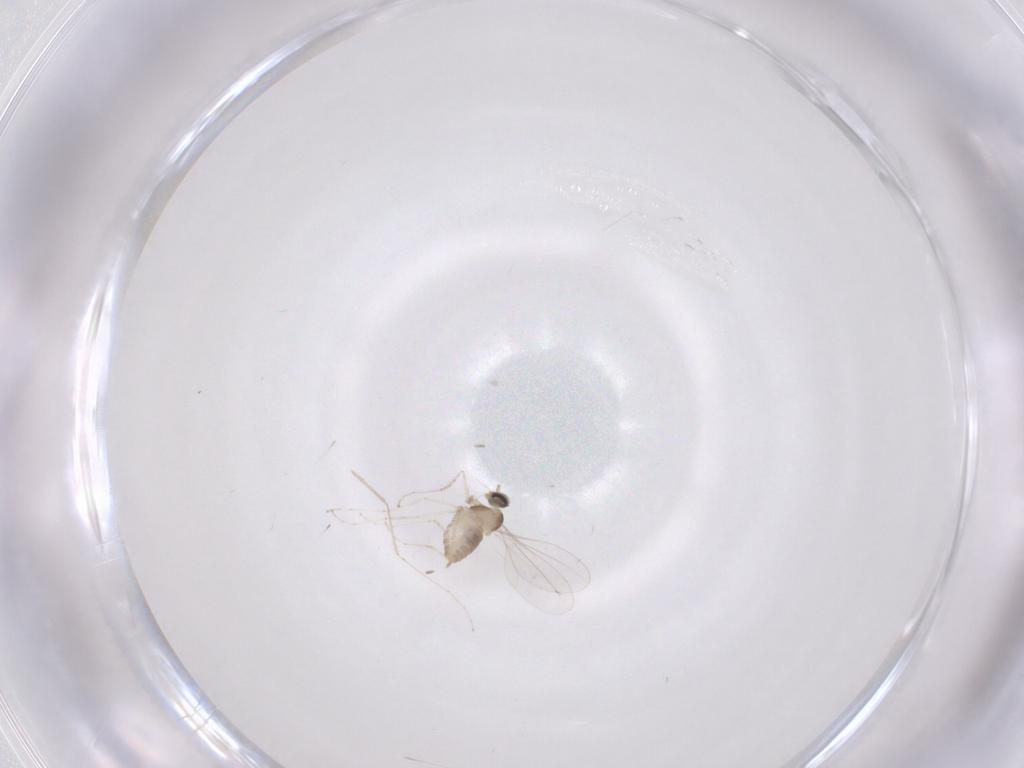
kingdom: Animalia
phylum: Arthropoda
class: Insecta
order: Diptera
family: Cecidomyiidae
